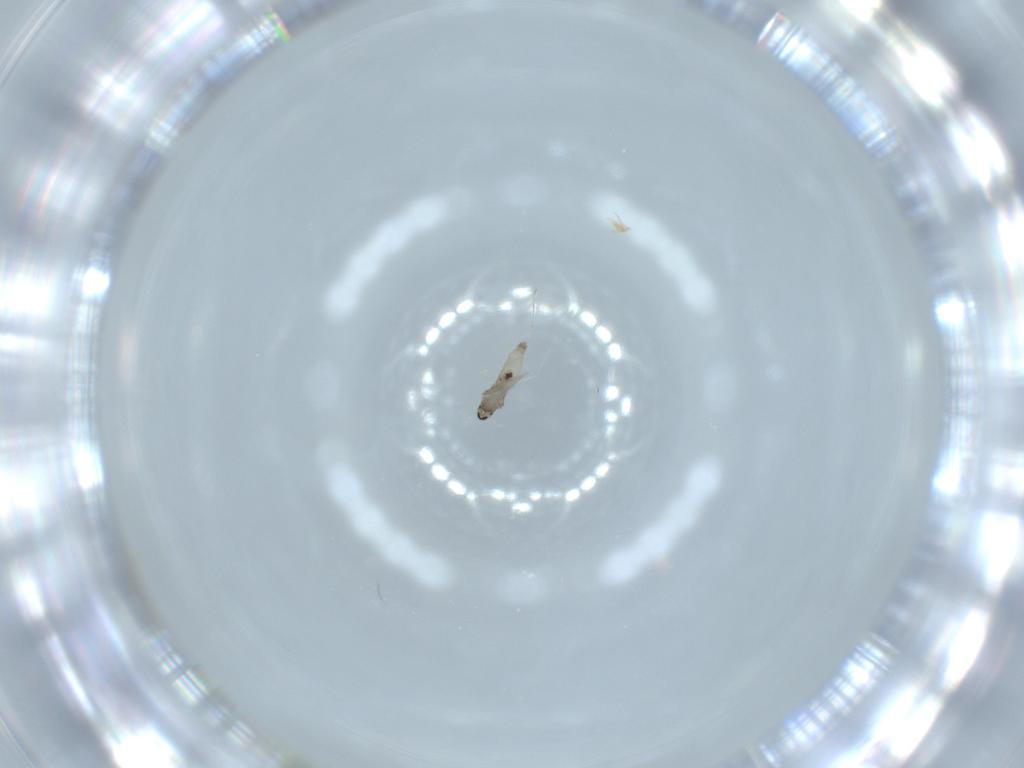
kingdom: Animalia
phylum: Arthropoda
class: Insecta
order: Diptera
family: Cecidomyiidae
